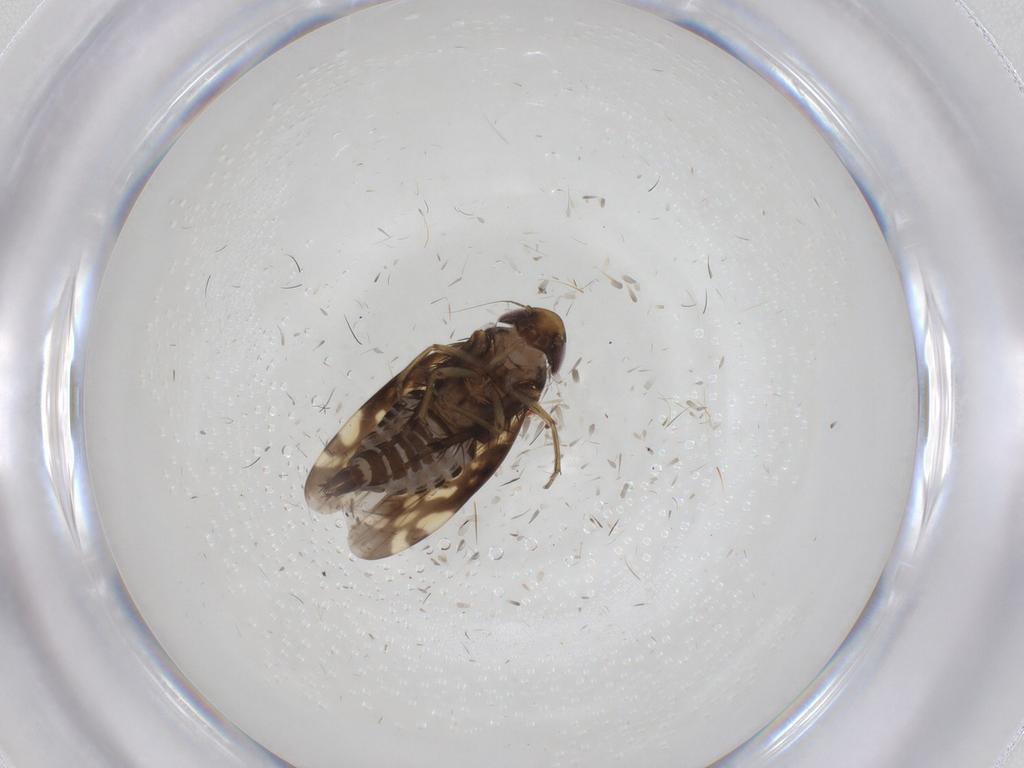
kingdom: Animalia
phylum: Arthropoda
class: Insecta
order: Hemiptera
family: Cicadellidae
